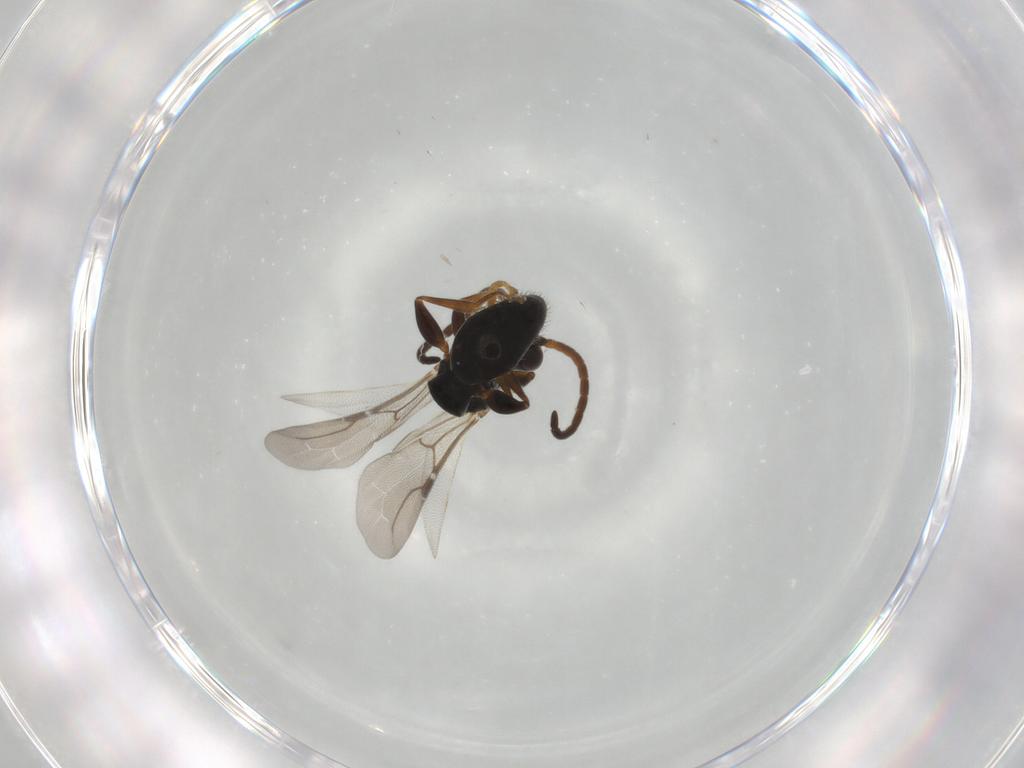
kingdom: Animalia
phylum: Arthropoda
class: Insecta
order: Hymenoptera
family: Bethylidae
